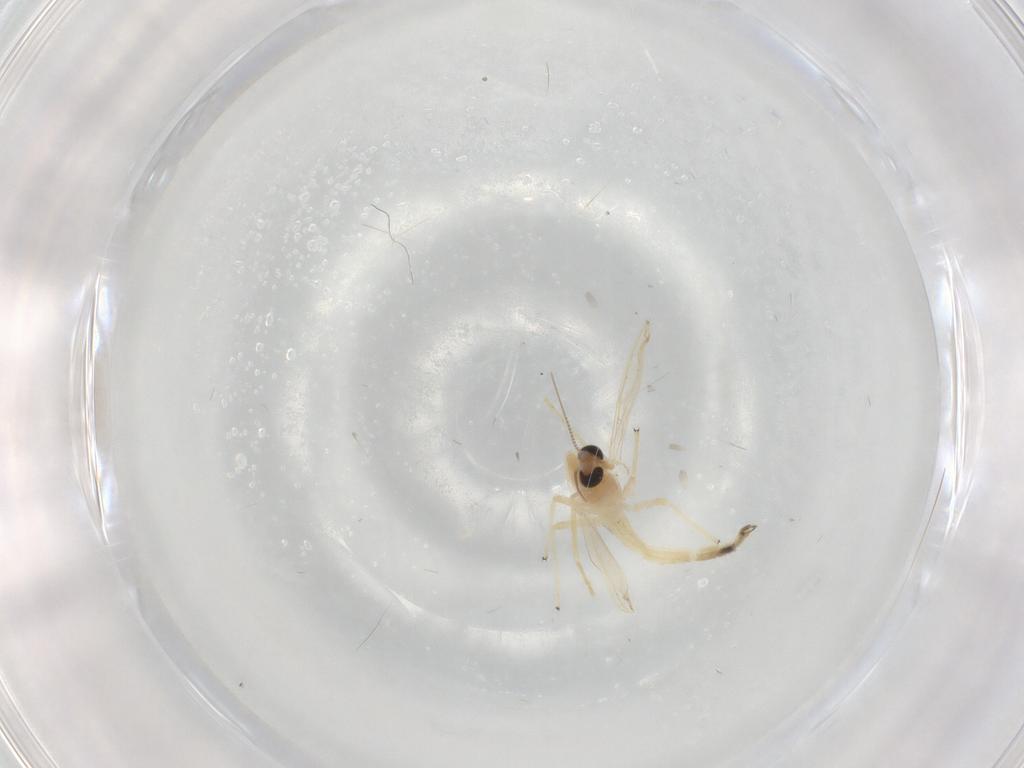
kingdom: Animalia
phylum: Arthropoda
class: Insecta
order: Diptera
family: Chironomidae
